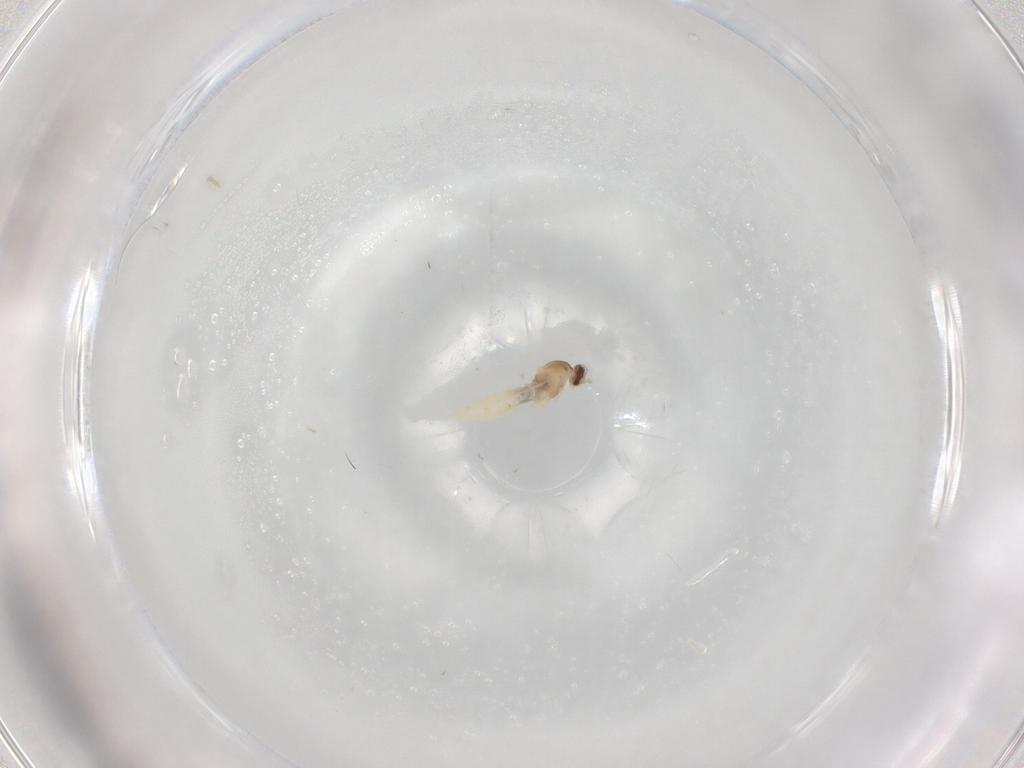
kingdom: Animalia
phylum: Arthropoda
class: Insecta
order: Diptera
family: Cecidomyiidae
